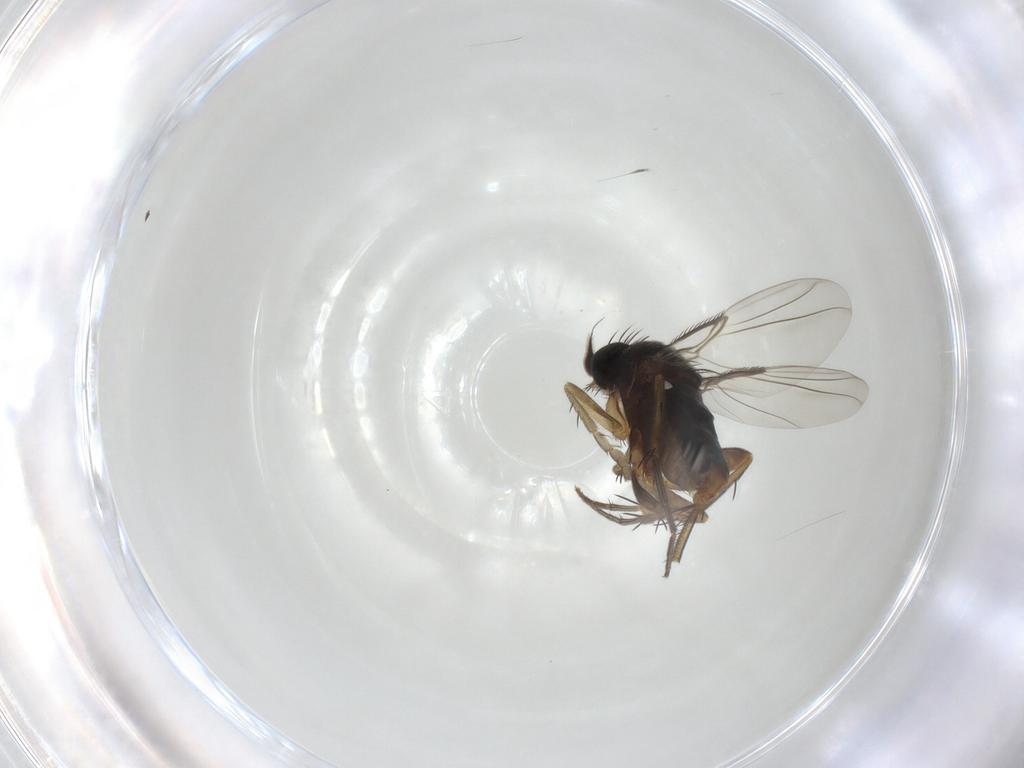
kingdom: Animalia
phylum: Arthropoda
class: Insecta
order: Diptera
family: Phoridae
